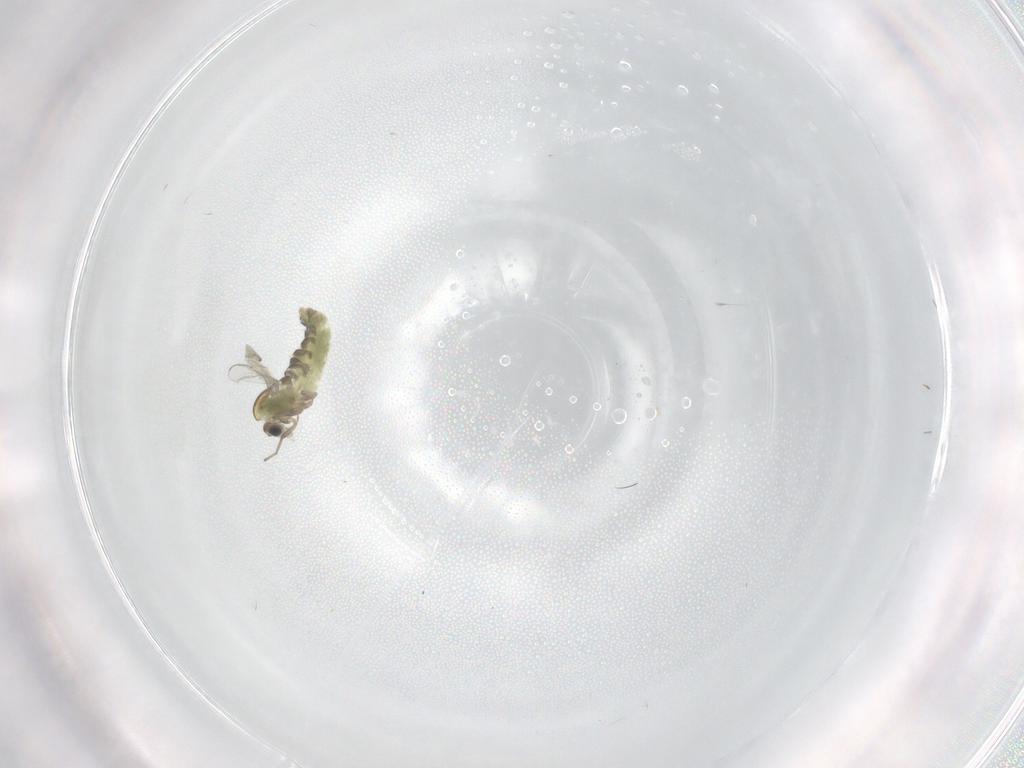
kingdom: Animalia
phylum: Arthropoda
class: Insecta
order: Diptera
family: Chironomidae
